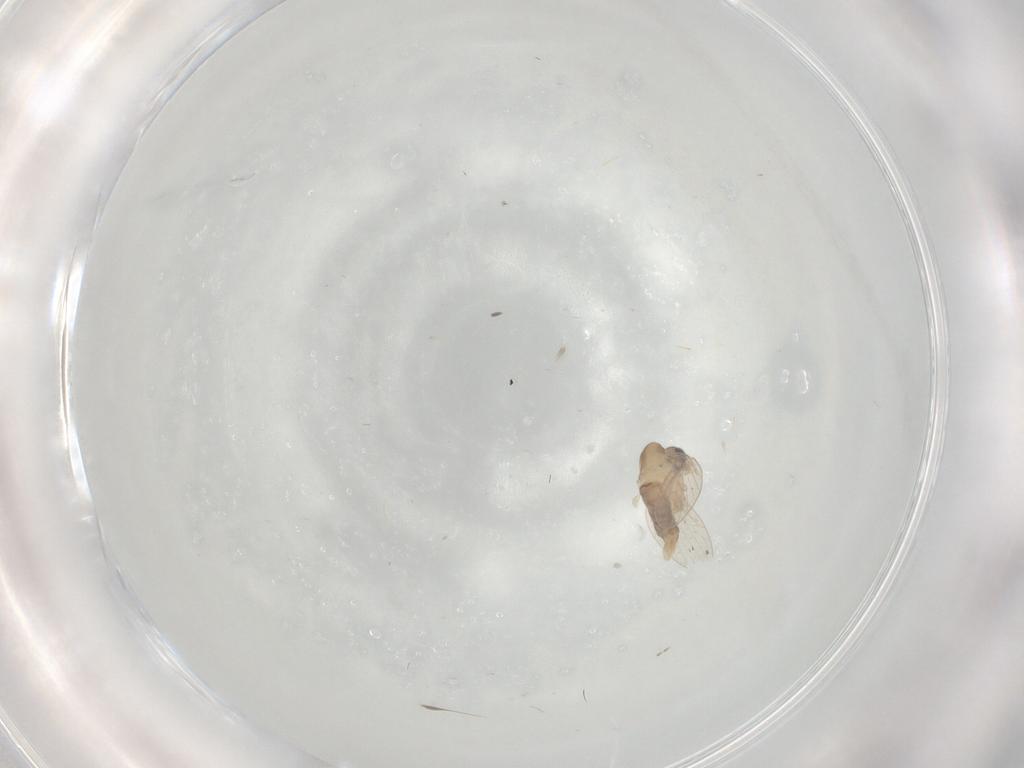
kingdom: Animalia
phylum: Arthropoda
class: Insecta
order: Diptera
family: Psychodidae
